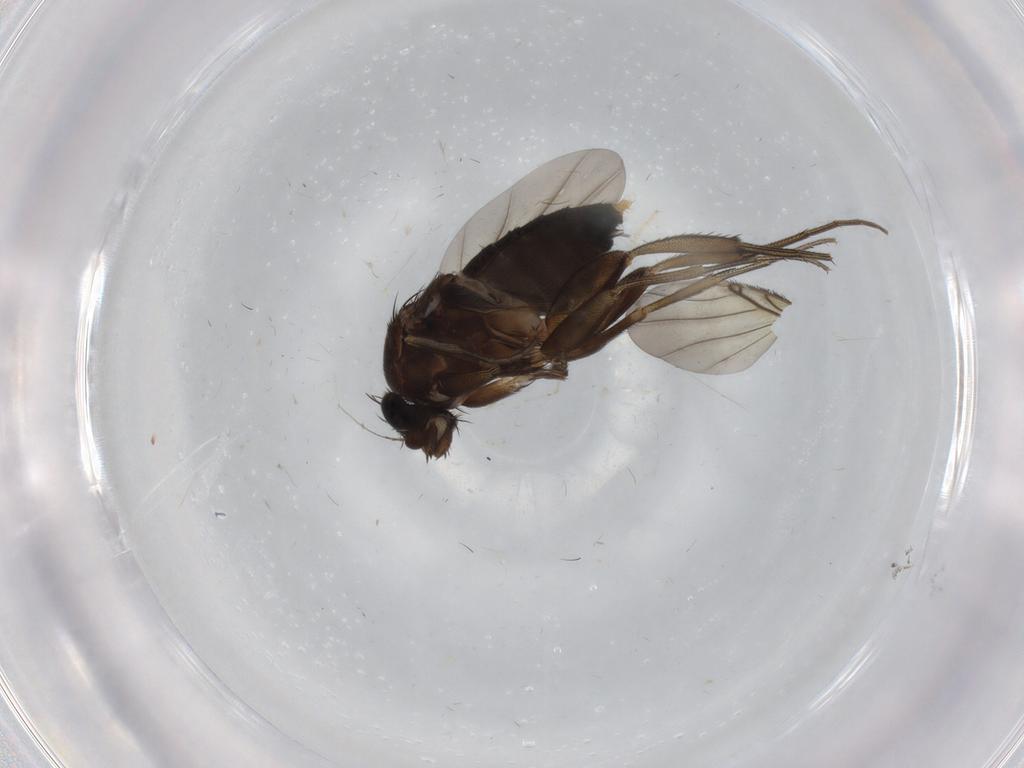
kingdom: Animalia
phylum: Arthropoda
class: Insecta
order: Diptera
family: Phoridae
